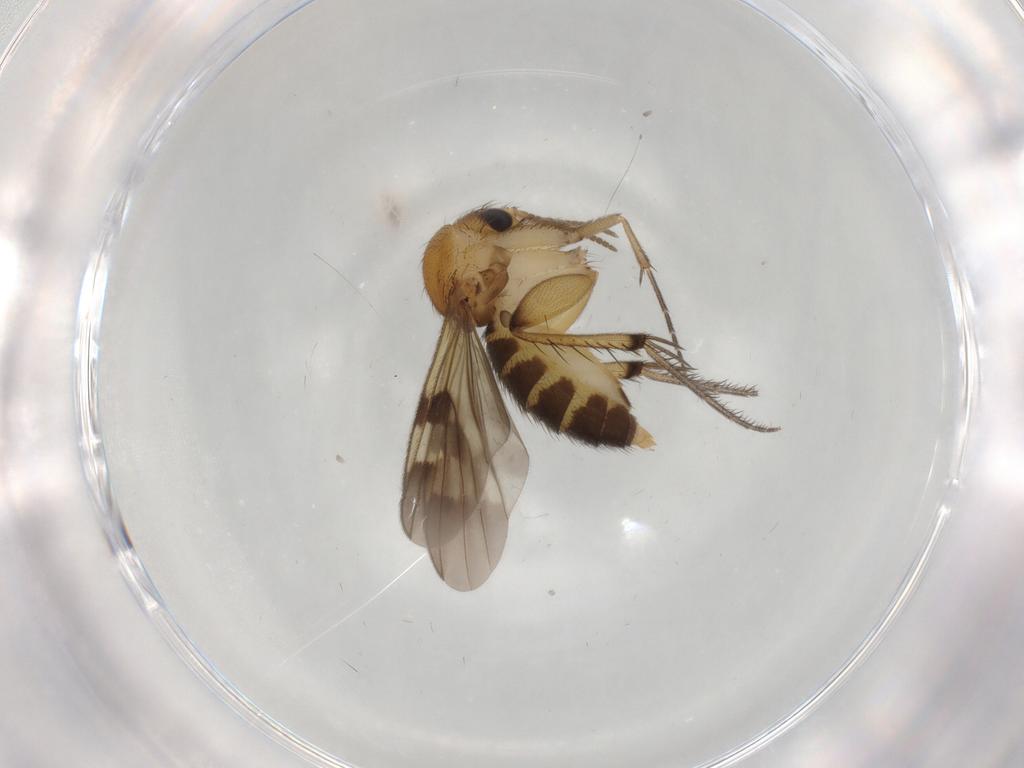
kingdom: Animalia
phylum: Arthropoda
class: Insecta
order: Diptera
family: Mycetophilidae
